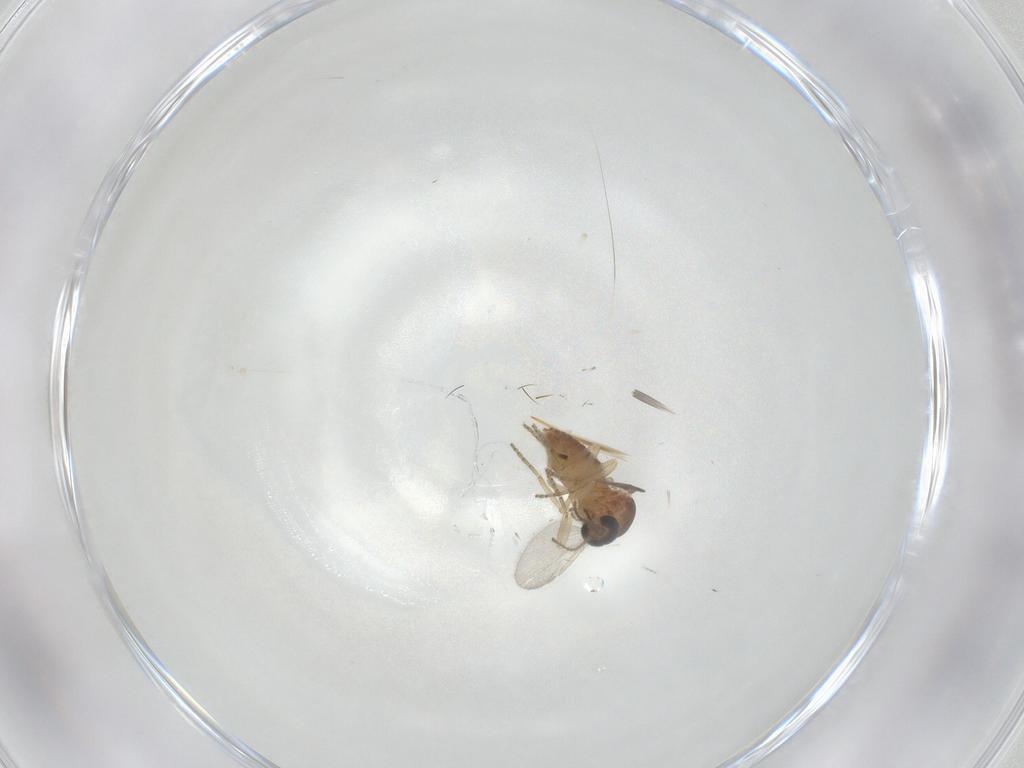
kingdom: Animalia
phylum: Arthropoda
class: Insecta
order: Diptera
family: Ceratopogonidae
